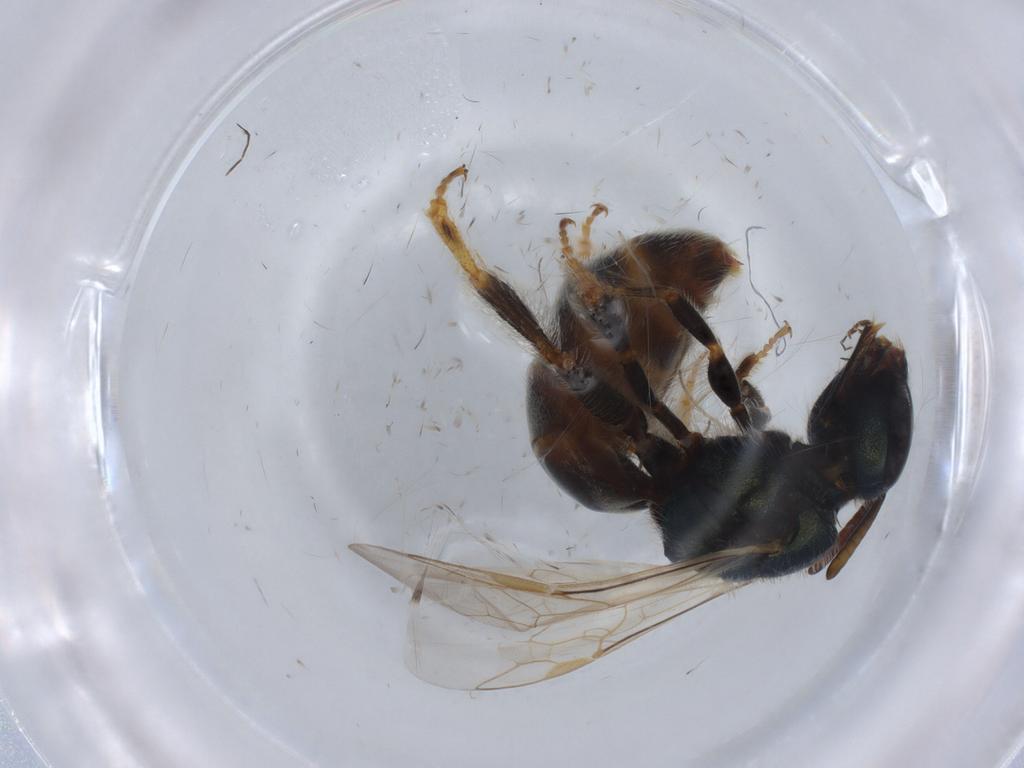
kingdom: Animalia
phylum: Arthropoda
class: Insecta
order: Hymenoptera
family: Halictidae
